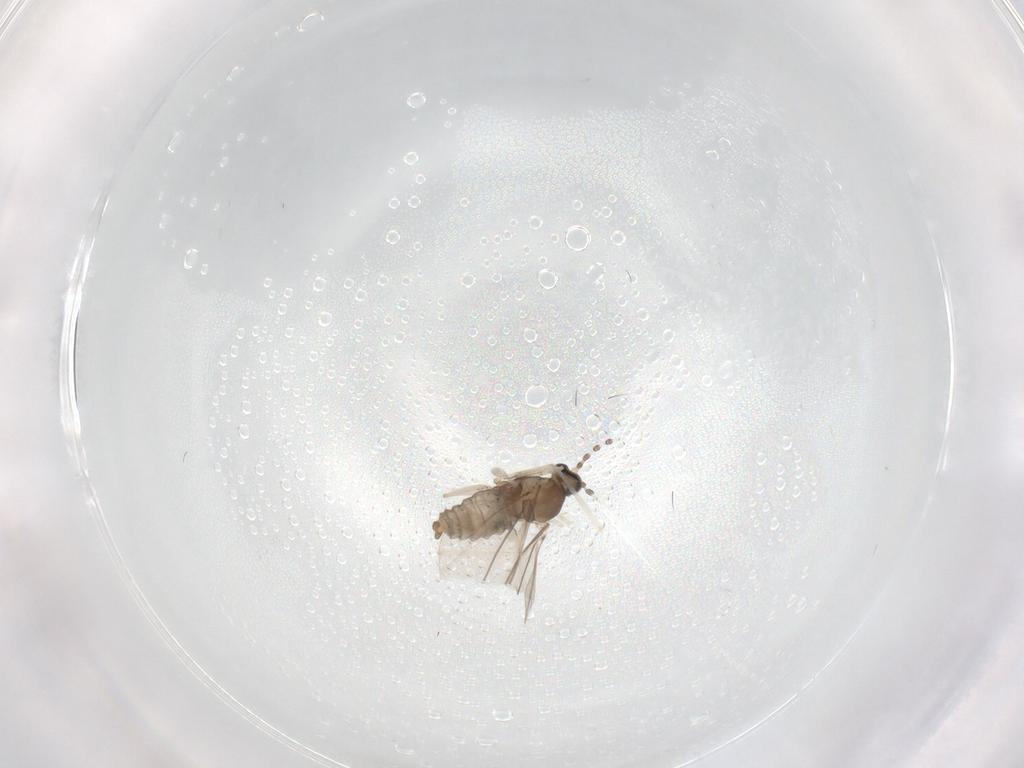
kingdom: Animalia
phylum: Arthropoda
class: Insecta
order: Diptera
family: Cecidomyiidae
